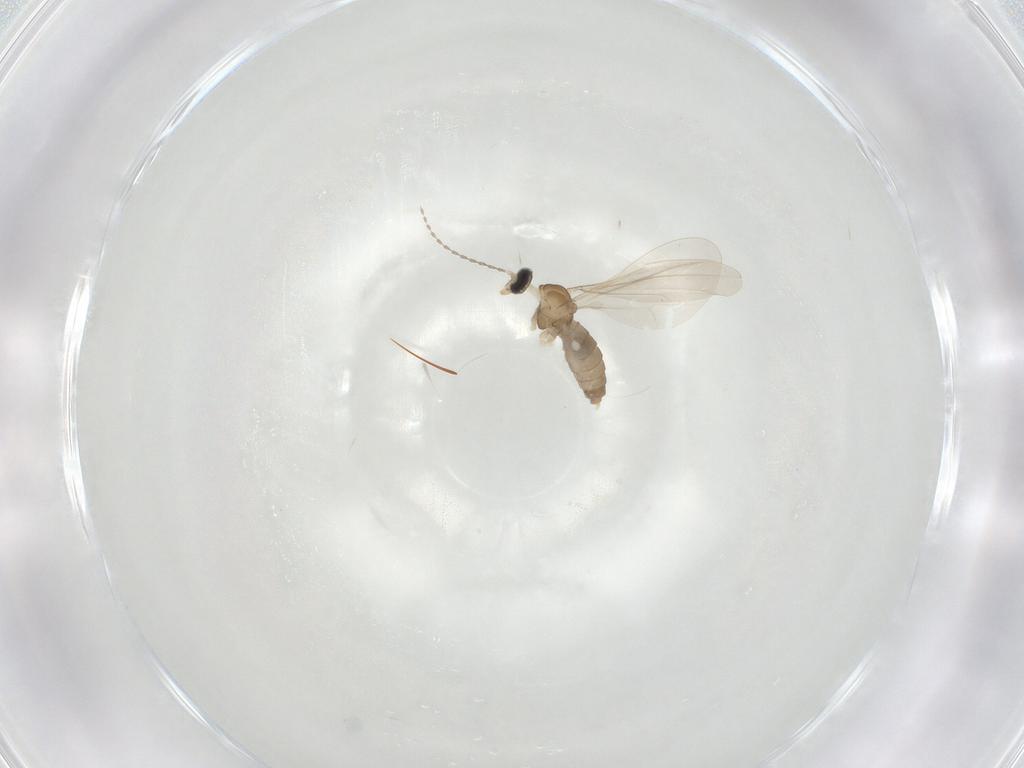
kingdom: Animalia
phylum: Arthropoda
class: Insecta
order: Diptera
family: Cecidomyiidae
